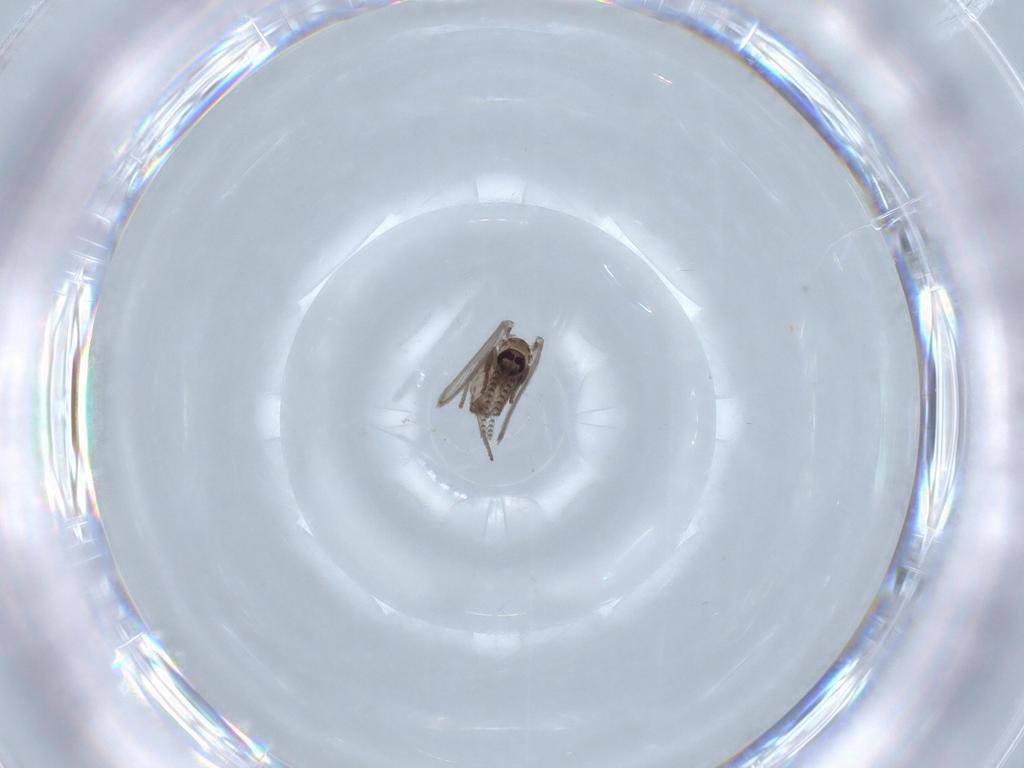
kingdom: Animalia
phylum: Arthropoda
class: Insecta
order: Diptera
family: Psychodidae
